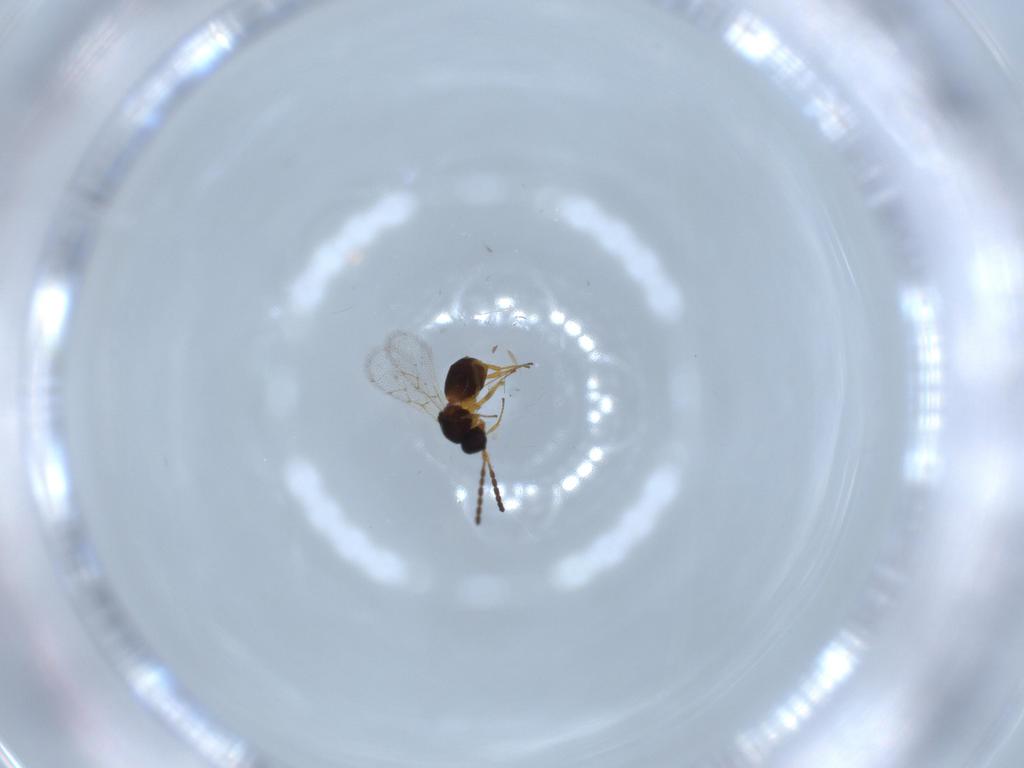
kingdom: Animalia
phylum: Arthropoda
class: Insecta
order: Hymenoptera
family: Figitidae
